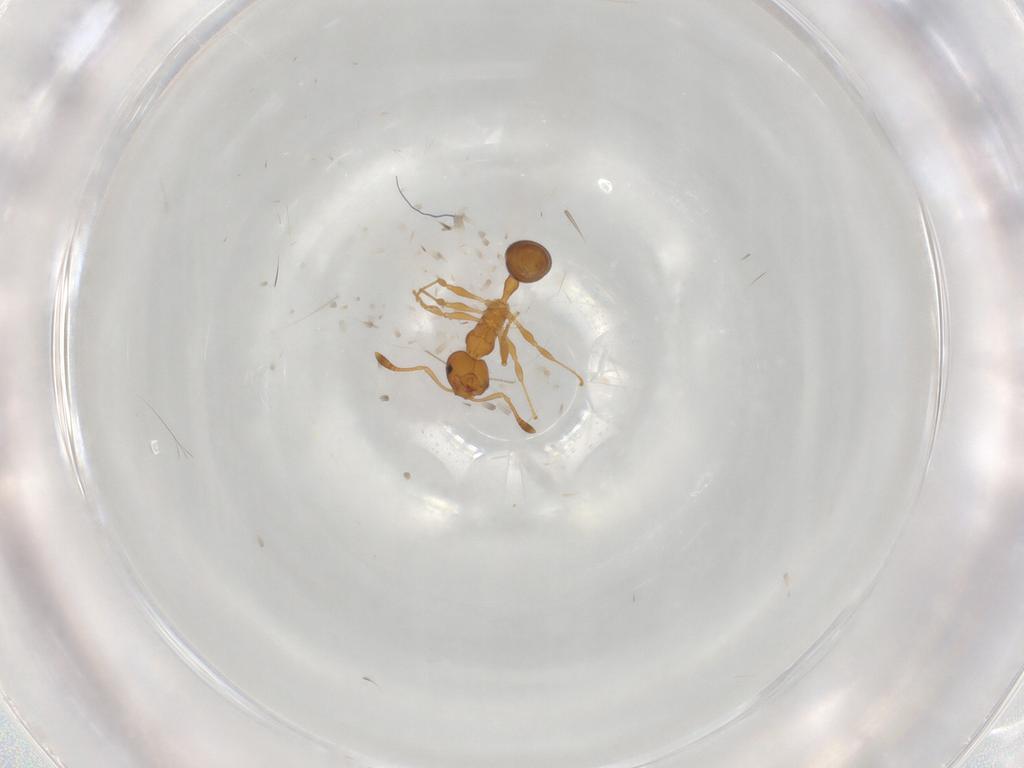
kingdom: Animalia
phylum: Arthropoda
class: Insecta
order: Hymenoptera
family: Formicidae
